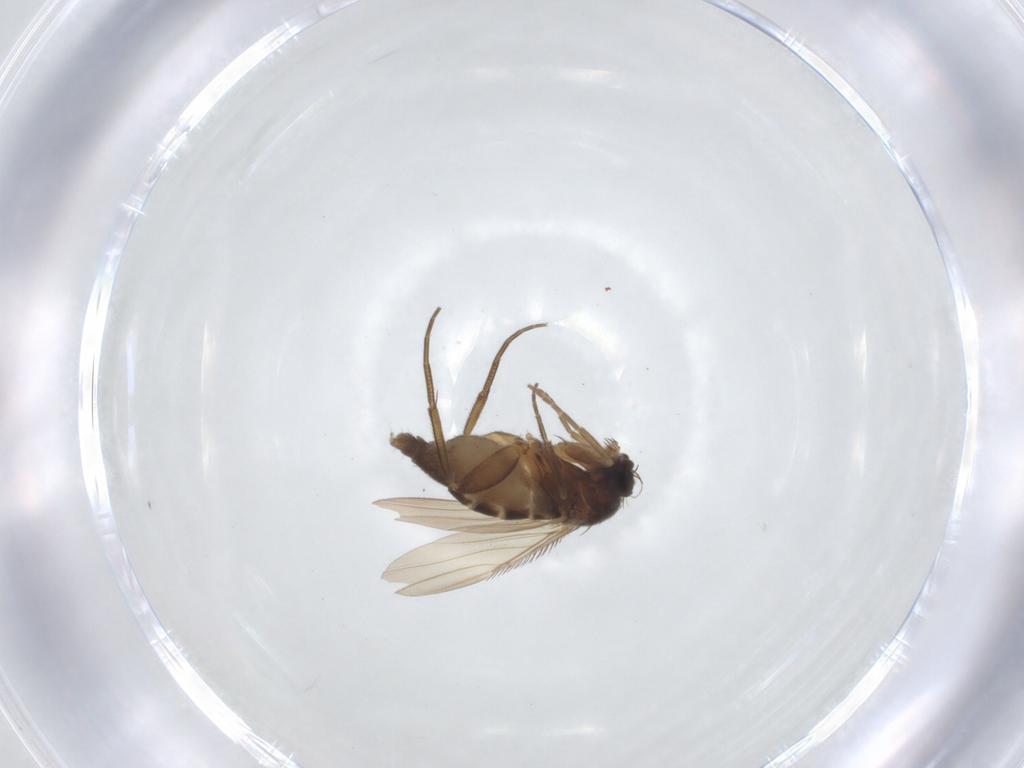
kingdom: Animalia
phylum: Arthropoda
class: Insecta
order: Diptera
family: Phoridae
